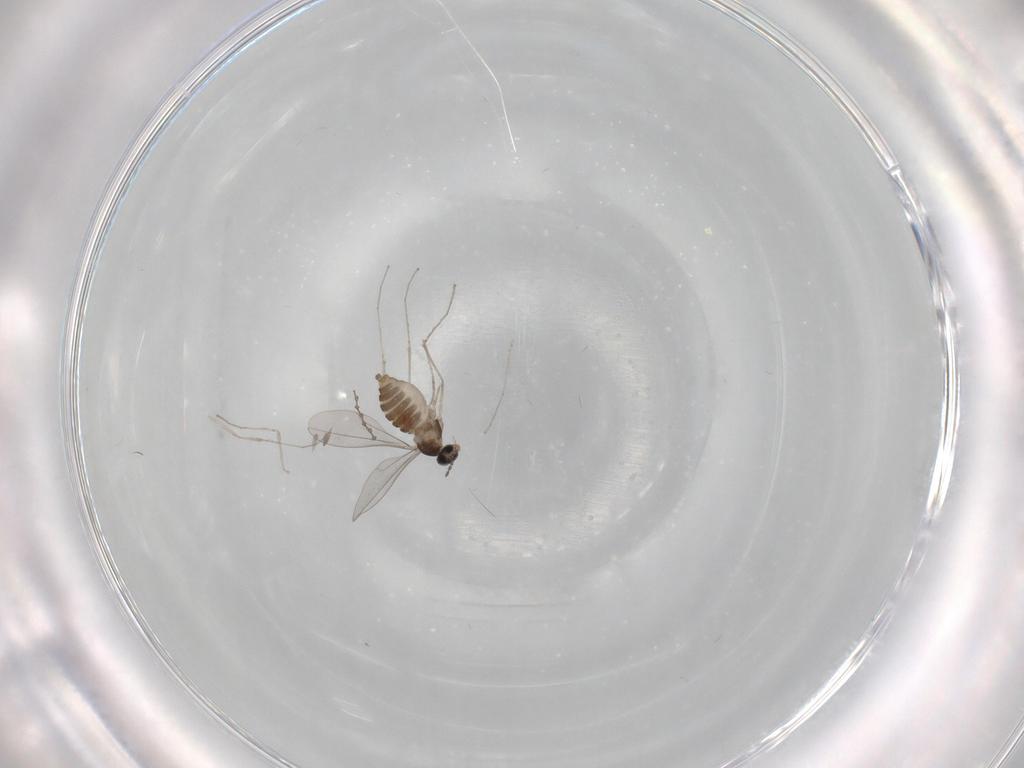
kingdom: Animalia
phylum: Arthropoda
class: Insecta
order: Diptera
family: Cecidomyiidae
